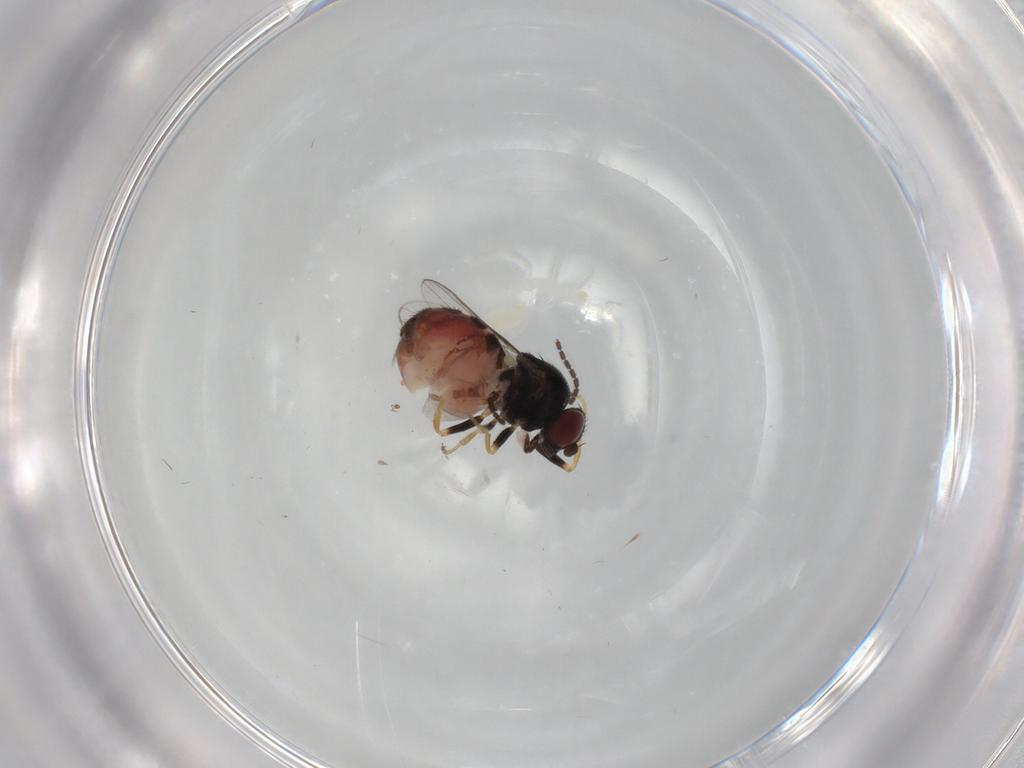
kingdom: Animalia
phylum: Arthropoda
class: Insecta
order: Diptera
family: Chloropidae
